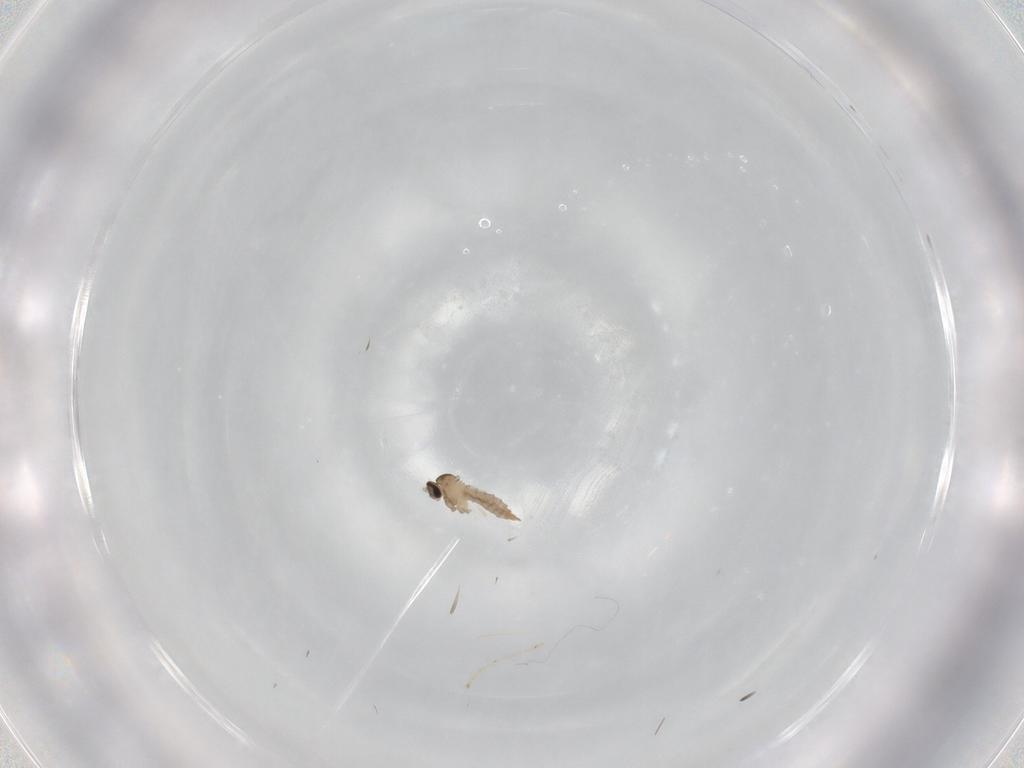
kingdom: Animalia
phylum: Arthropoda
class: Insecta
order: Diptera
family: Cecidomyiidae
